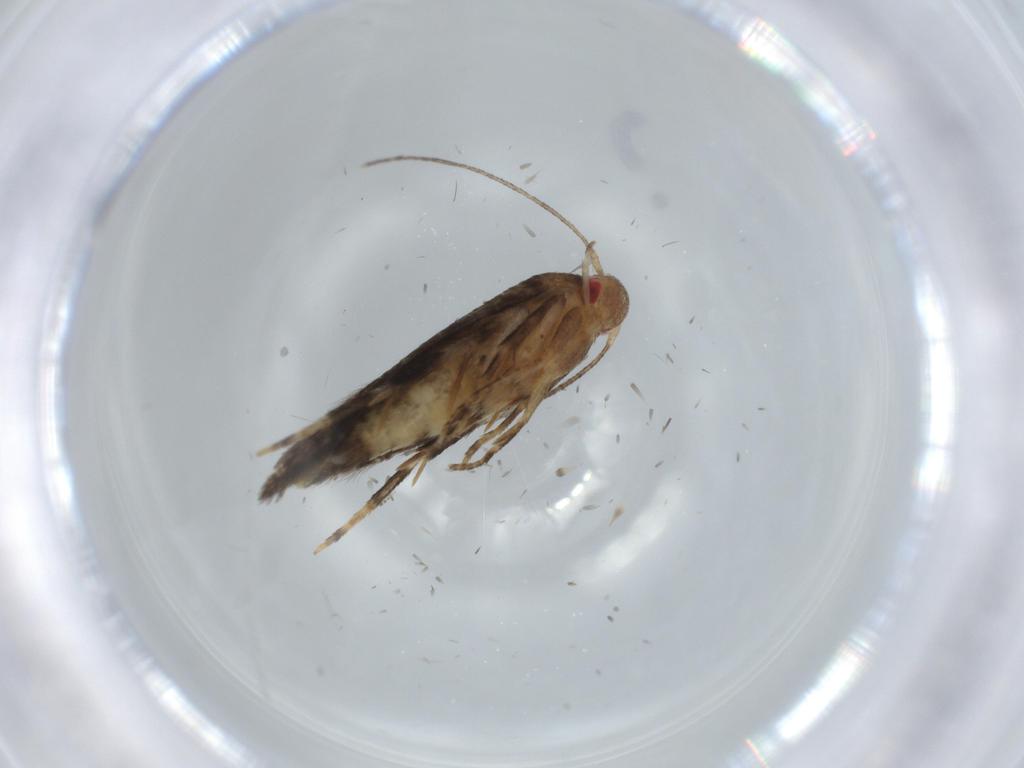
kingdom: Animalia
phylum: Arthropoda
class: Insecta
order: Lepidoptera
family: Momphidae
